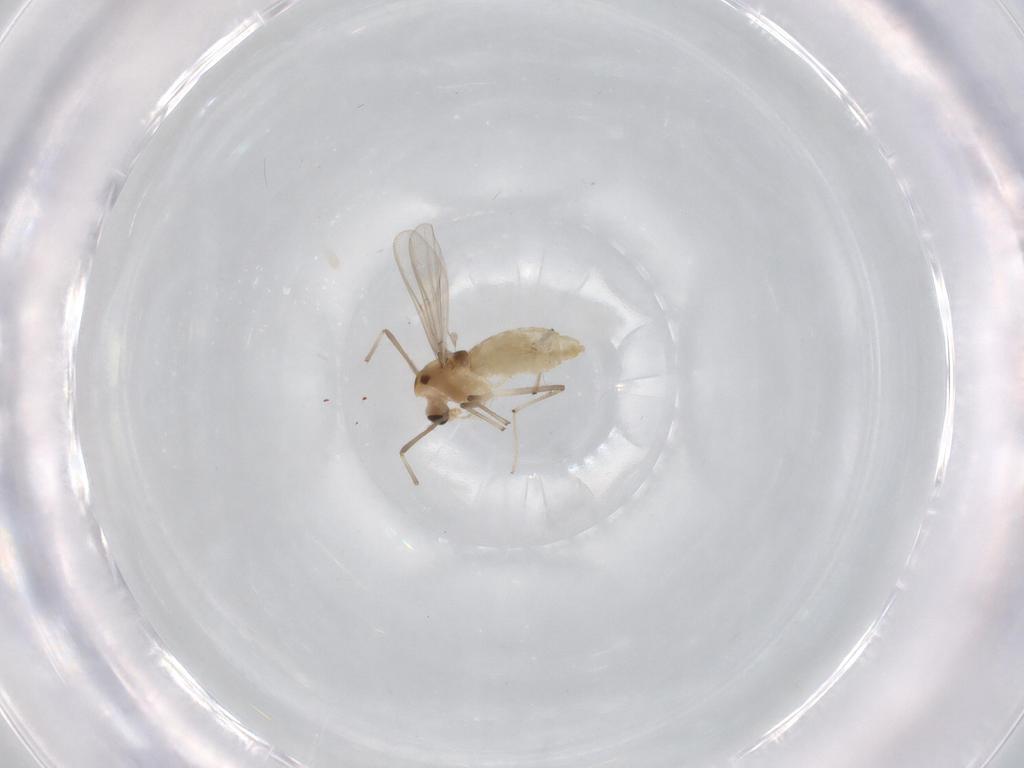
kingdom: Animalia
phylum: Arthropoda
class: Insecta
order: Diptera
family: Chironomidae
